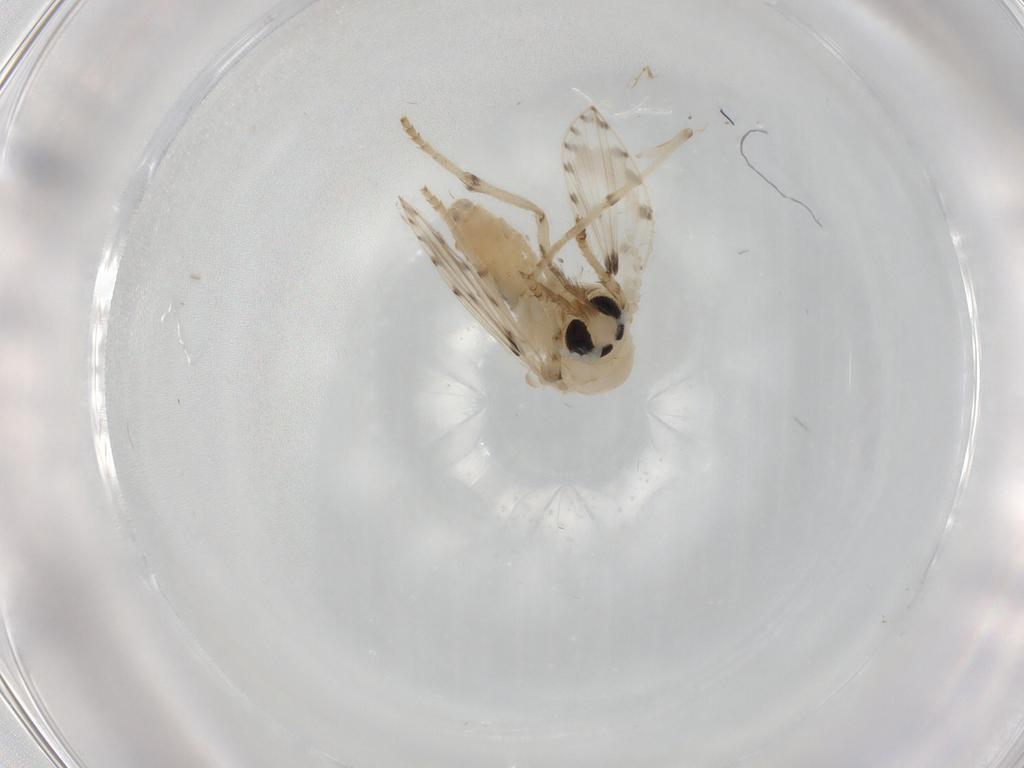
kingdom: Animalia
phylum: Arthropoda
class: Insecta
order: Diptera
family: Psychodidae
